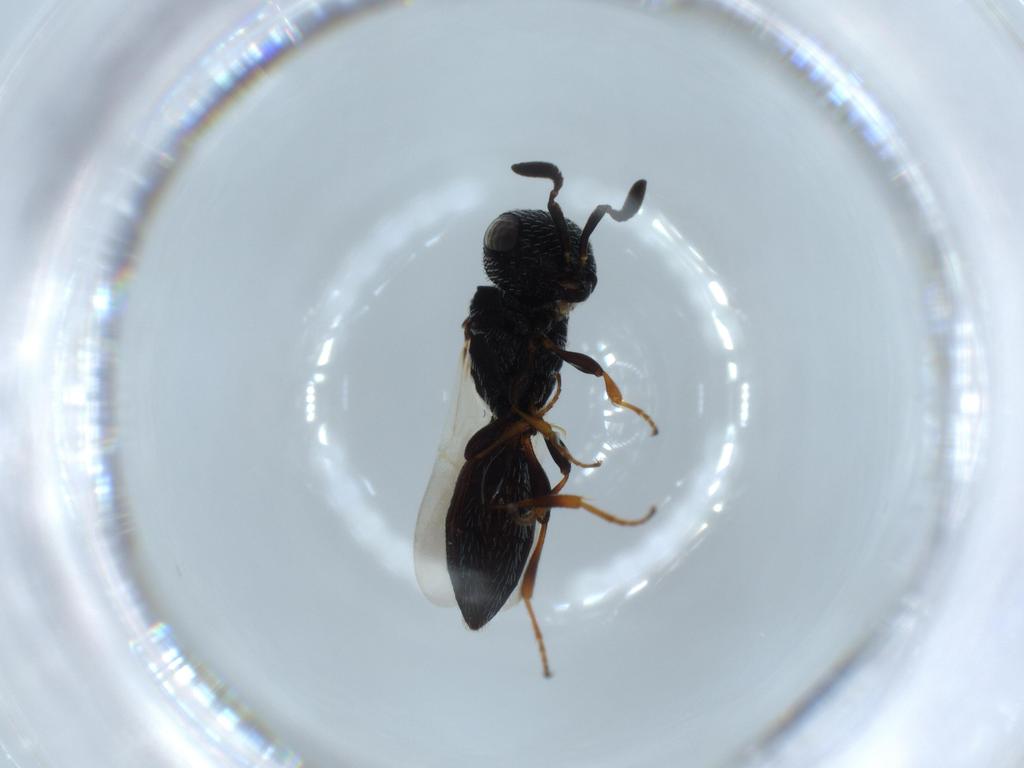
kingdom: Animalia
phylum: Arthropoda
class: Insecta
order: Hymenoptera
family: Scelionidae
